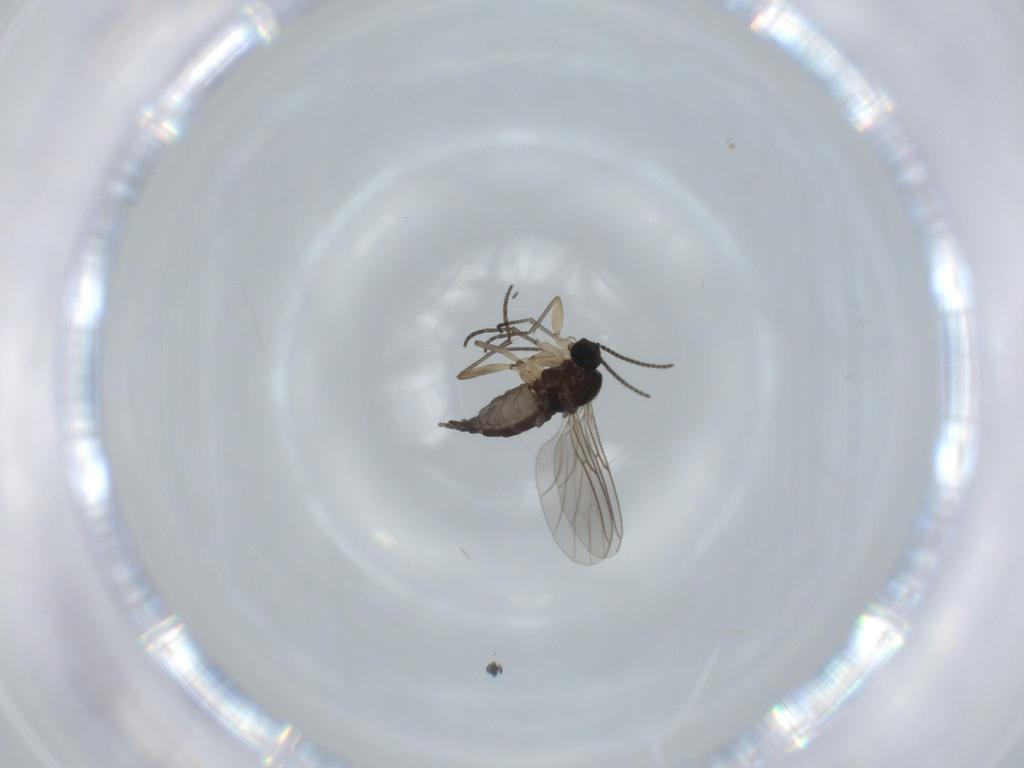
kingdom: Animalia
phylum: Arthropoda
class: Insecta
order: Diptera
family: Sciaridae
